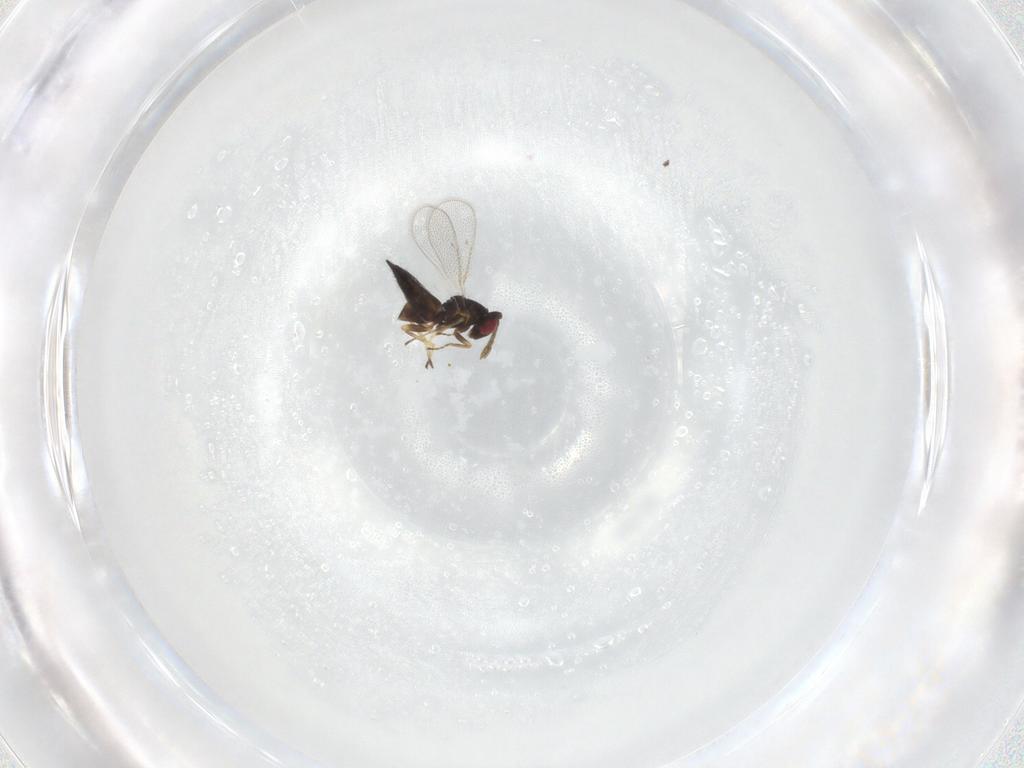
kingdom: Animalia
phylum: Arthropoda
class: Insecta
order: Hymenoptera
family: Eulophidae
